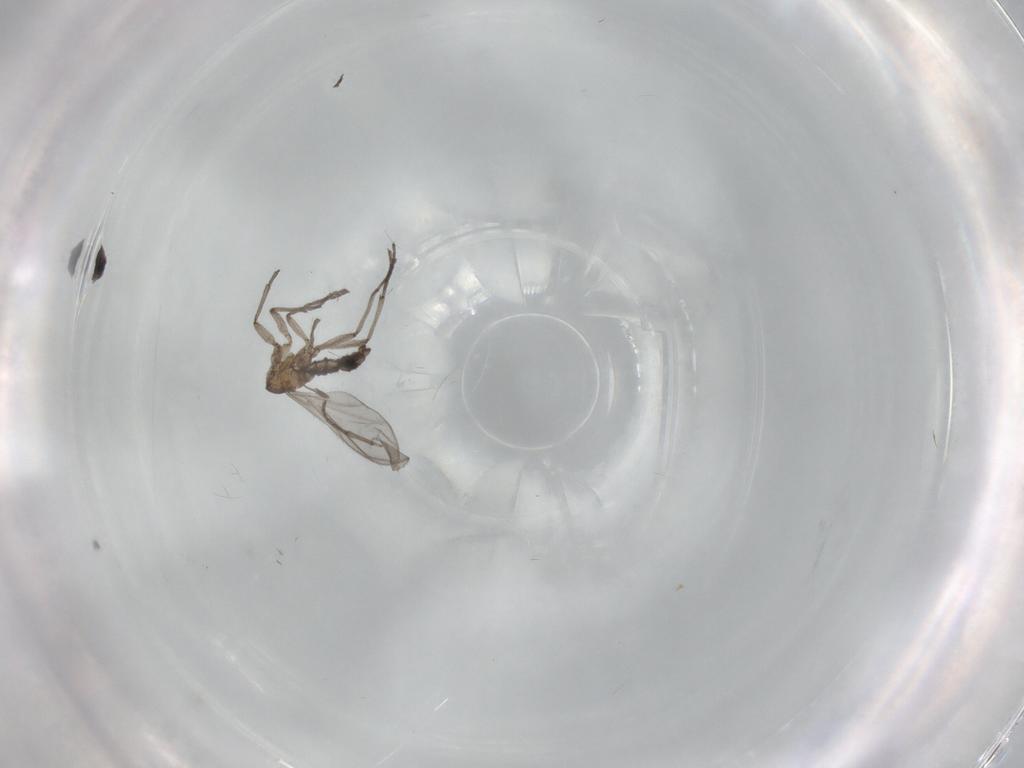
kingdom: Animalia
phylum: Arthropoda
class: Insecta
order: Diptera
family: Sciaridae
